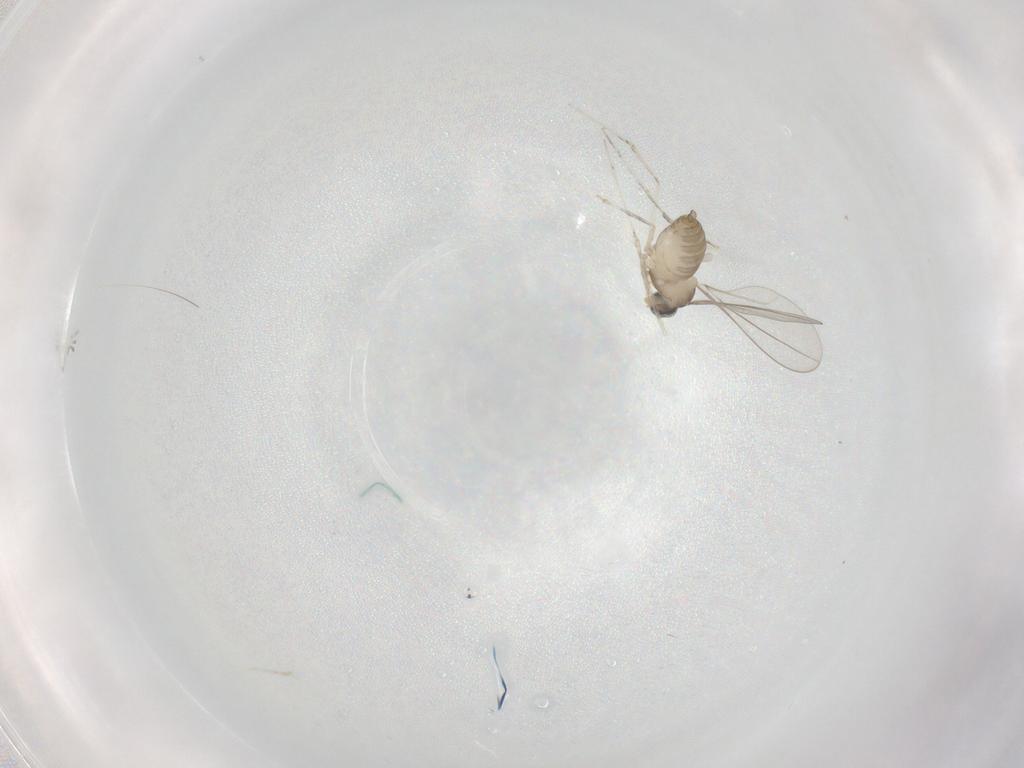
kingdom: Animalia
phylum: Arthropoda
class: Insecta
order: Diptera
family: Cecidomyiidae
